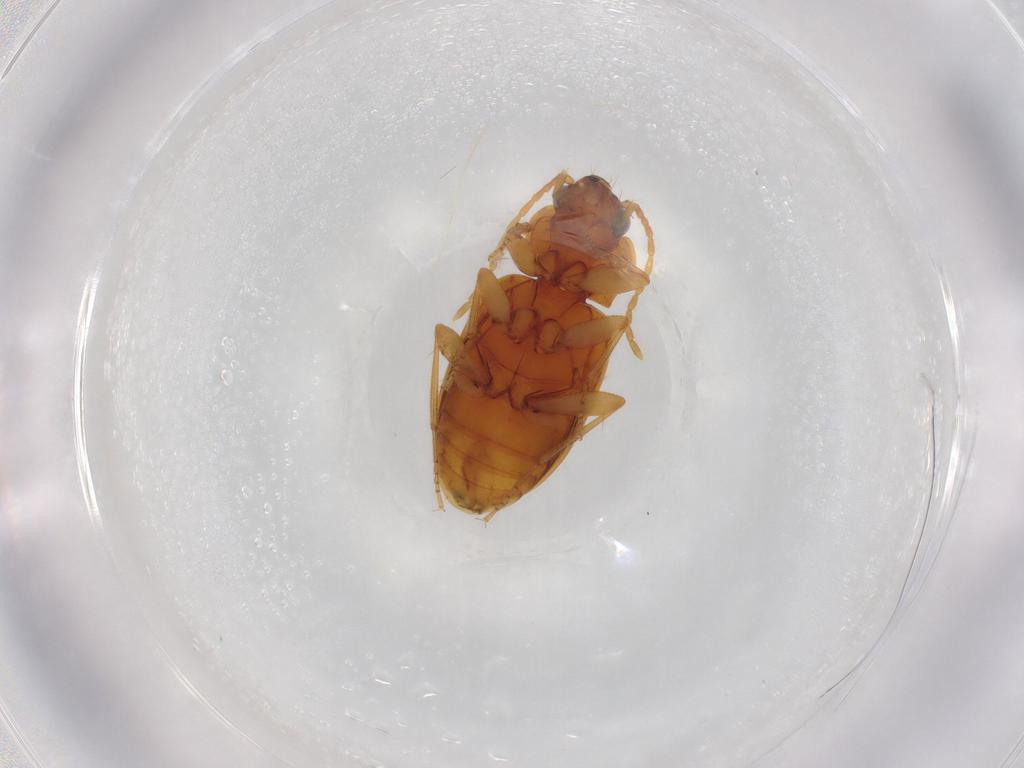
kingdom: Animalia
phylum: Arthropoda
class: Insecta
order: Coleoptera
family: Carabidae
